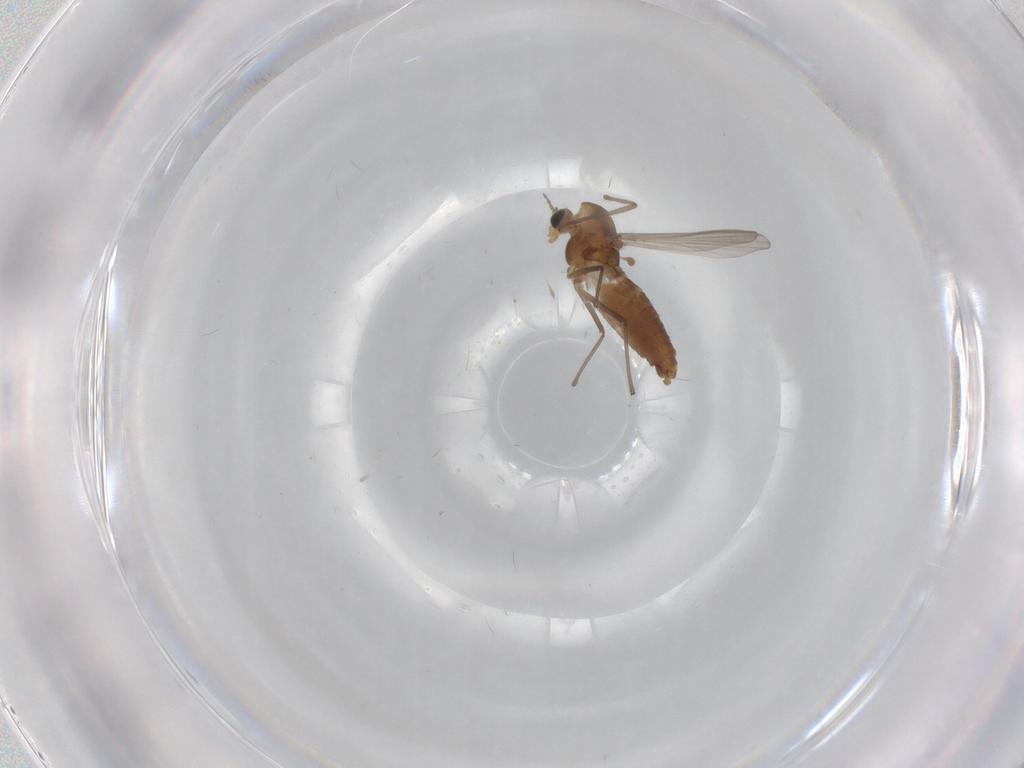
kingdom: Animalia
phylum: Arthropoda
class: Insecta
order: Diptera
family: Chironomidae
